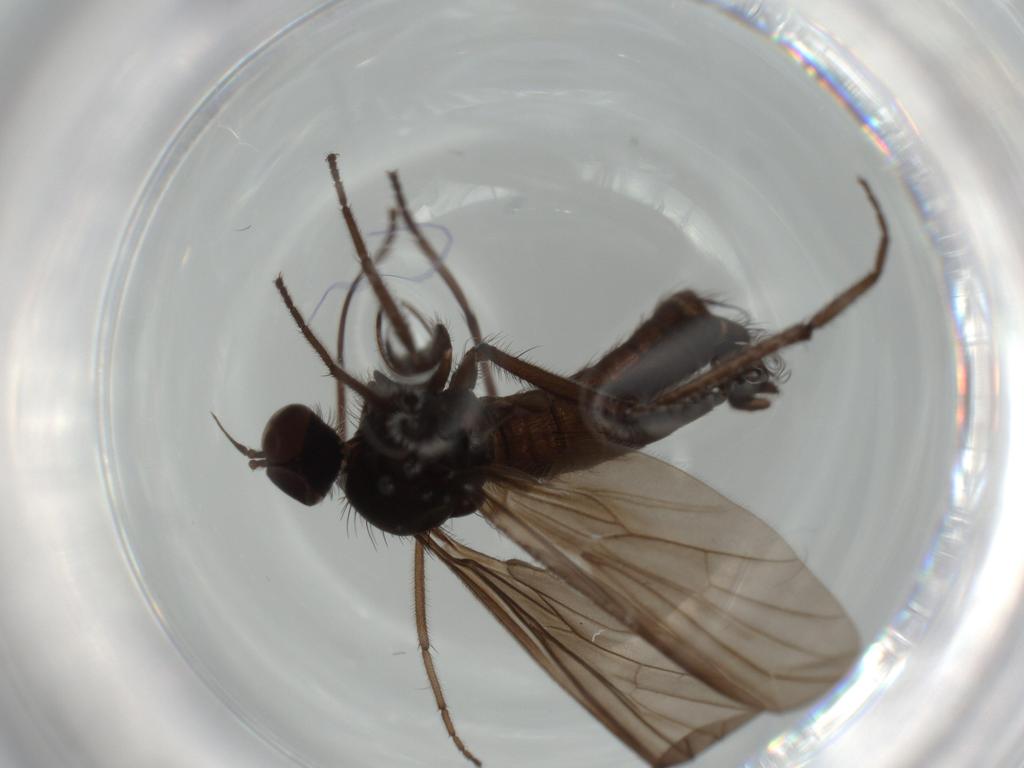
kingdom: Animalia
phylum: Arthropoda
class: Insecta
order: Diptera
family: Empididae
